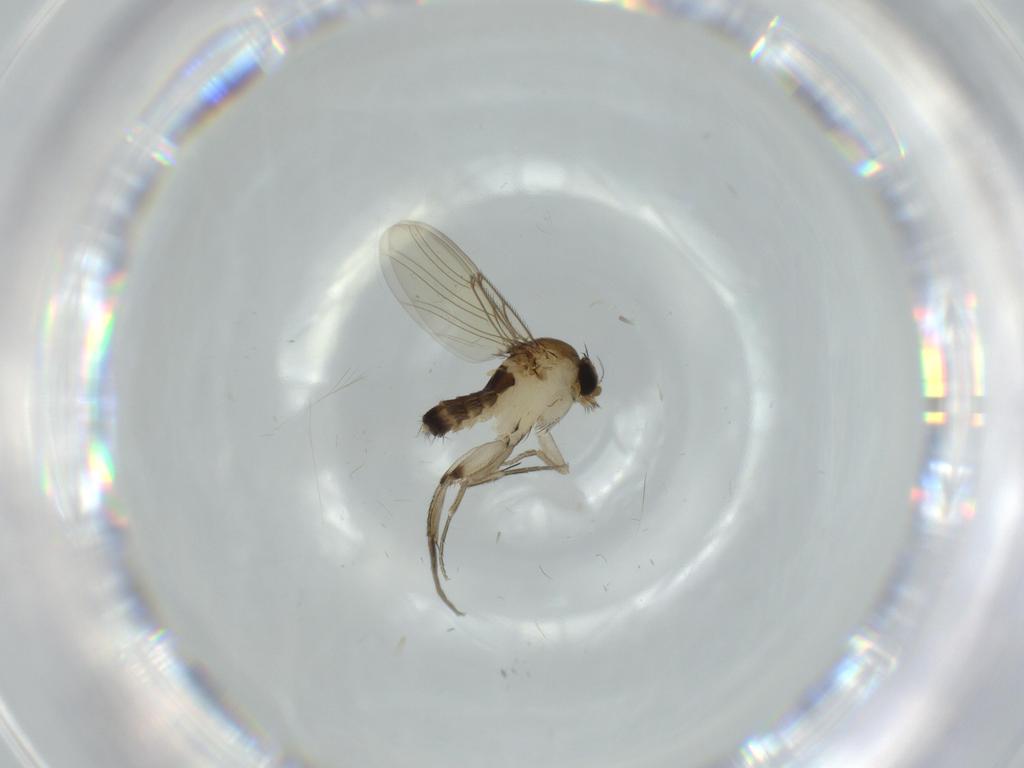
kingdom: Animalia
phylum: Arthropoda
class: Insecta
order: Diptera
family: Phoridae
